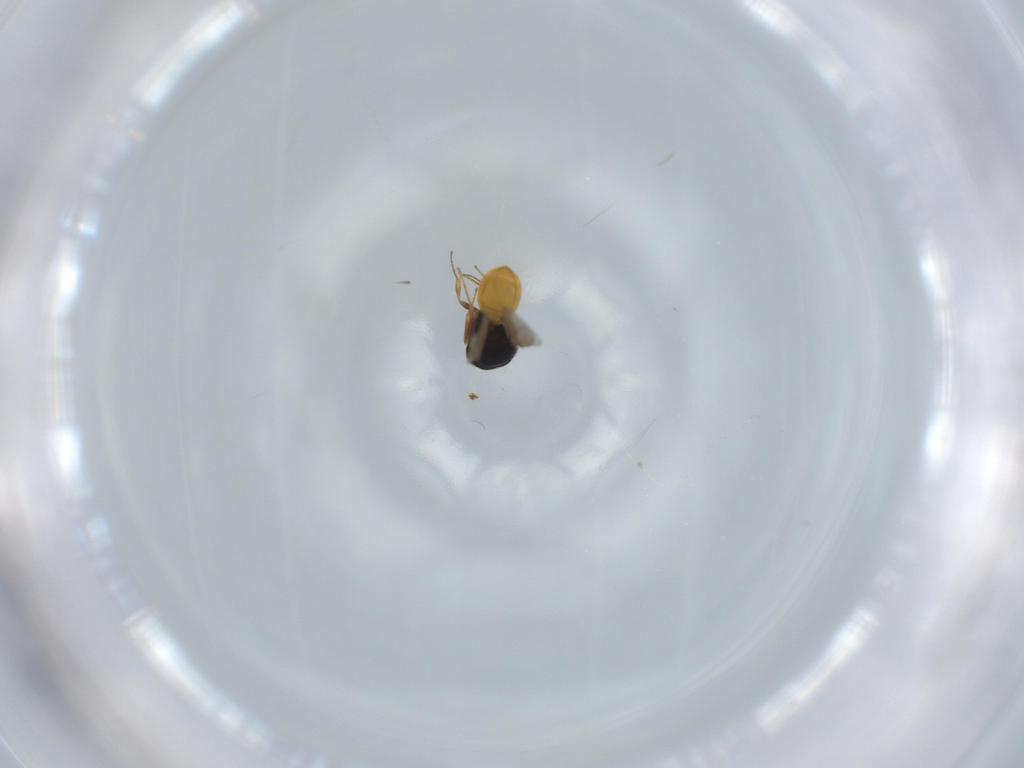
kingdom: Animalia
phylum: Arthropoda
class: Insecta
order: Hymenoptera
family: Scelionidae
